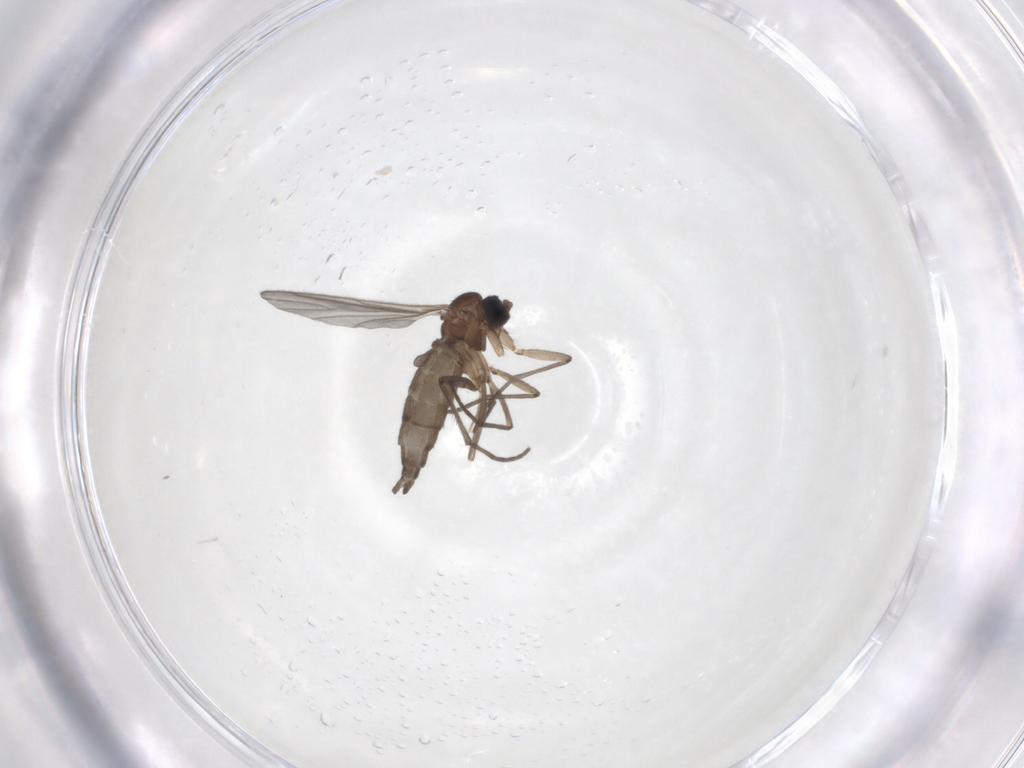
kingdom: Animalia
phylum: Arthropoda
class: Insecta
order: Diptera
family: Sciaridae
